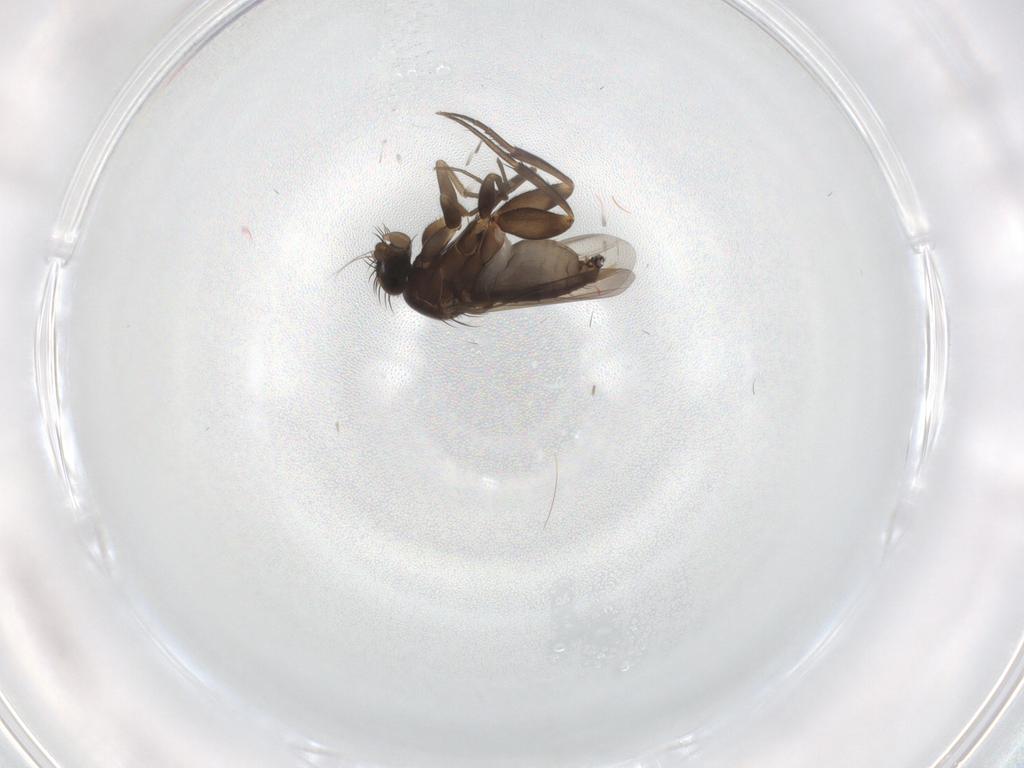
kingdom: Animalia
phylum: Arthropoda
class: Insecta
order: Diptera
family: Phoridae
